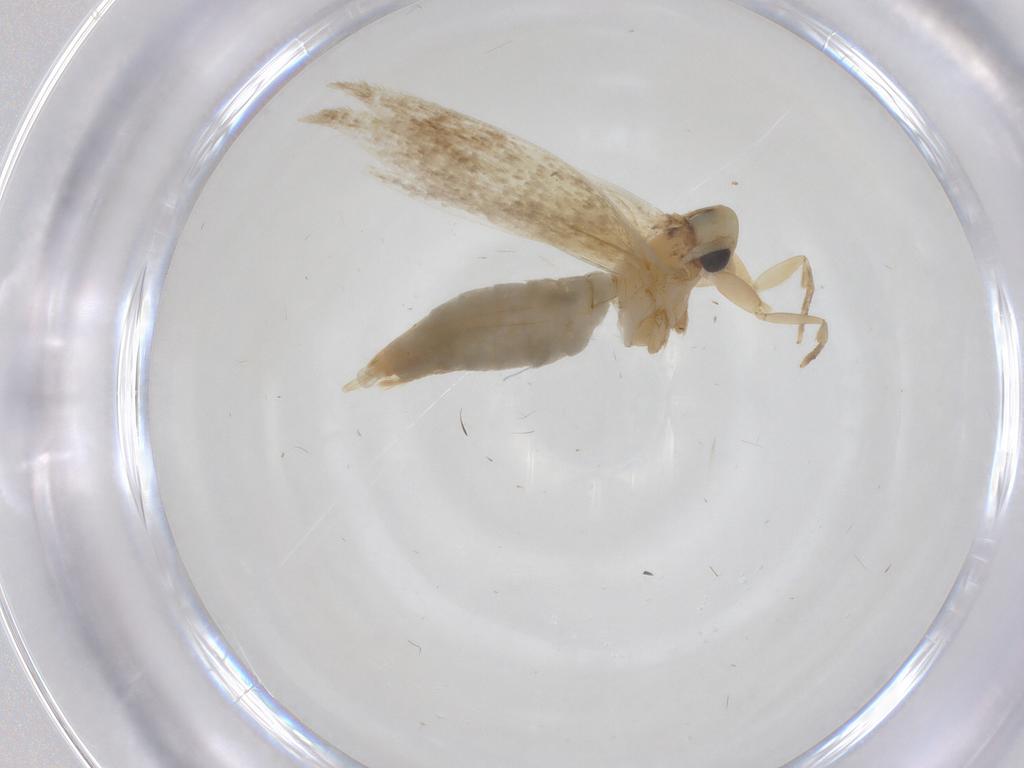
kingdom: Animalia
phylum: Arthropoda
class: Insecta
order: Lepidoptera
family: Tineidae
